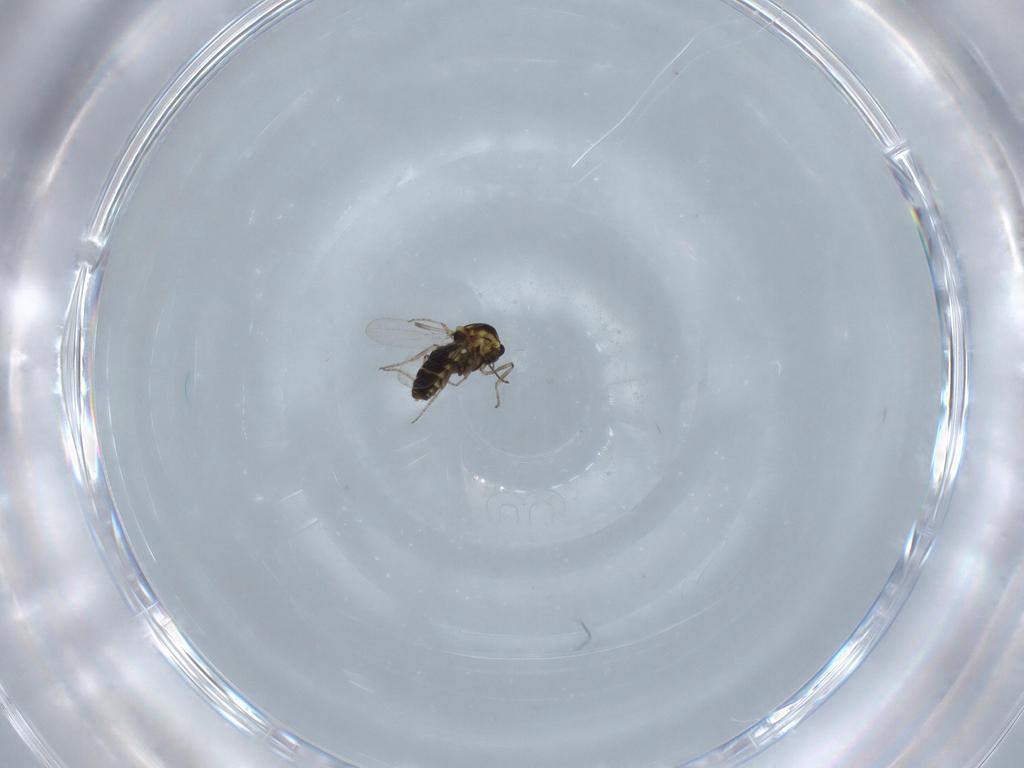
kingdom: Animalia
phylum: Arthropoda
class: Insecta
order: Diptera
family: Ceratopogonidae
